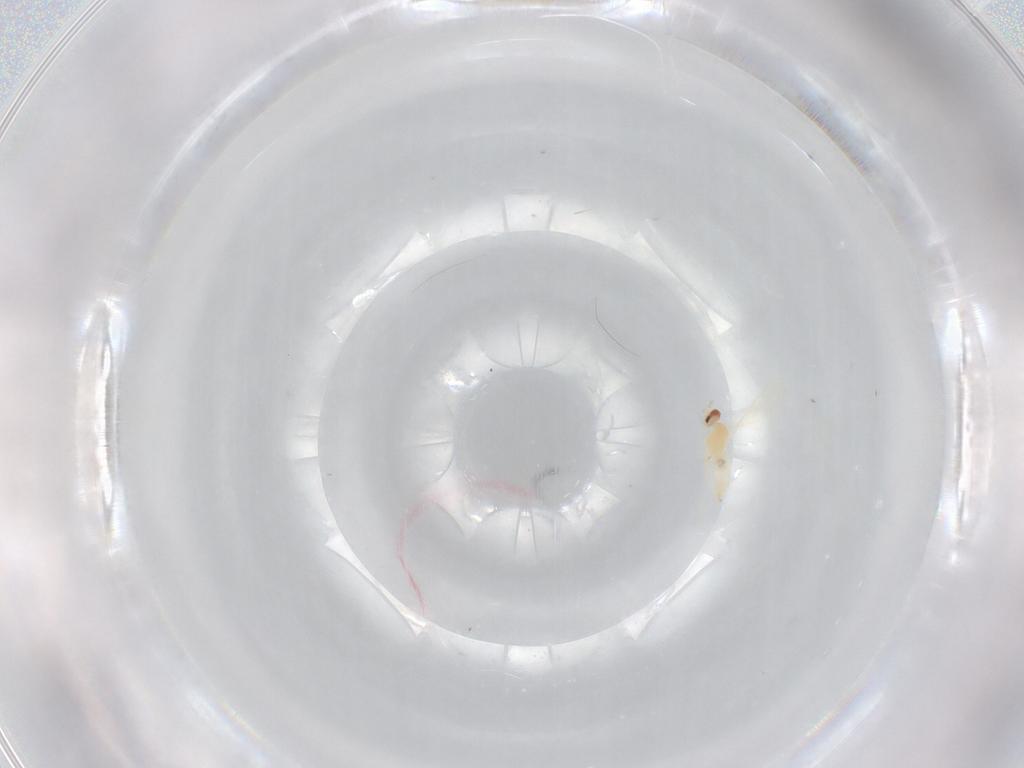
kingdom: Animalia
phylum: Arthropoda
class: Insecta
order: Diptera
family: Cecidomyiidae
